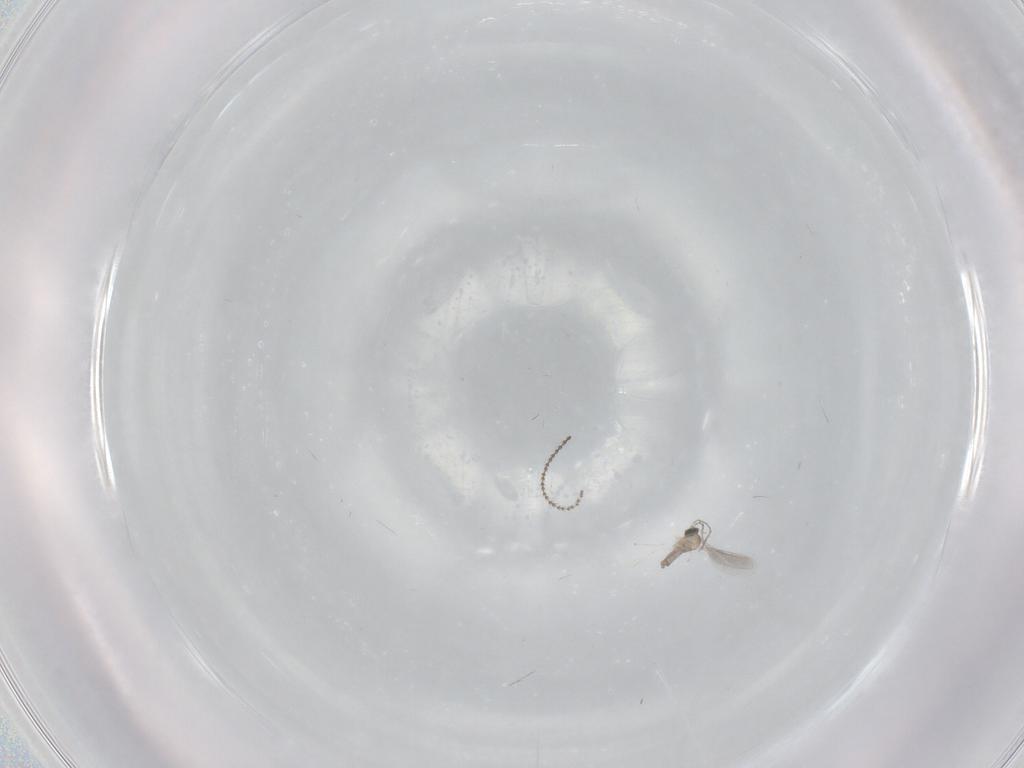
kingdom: Animalia
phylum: Arthropoda
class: Insecta
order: Diptera
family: Cecidomyiidae
